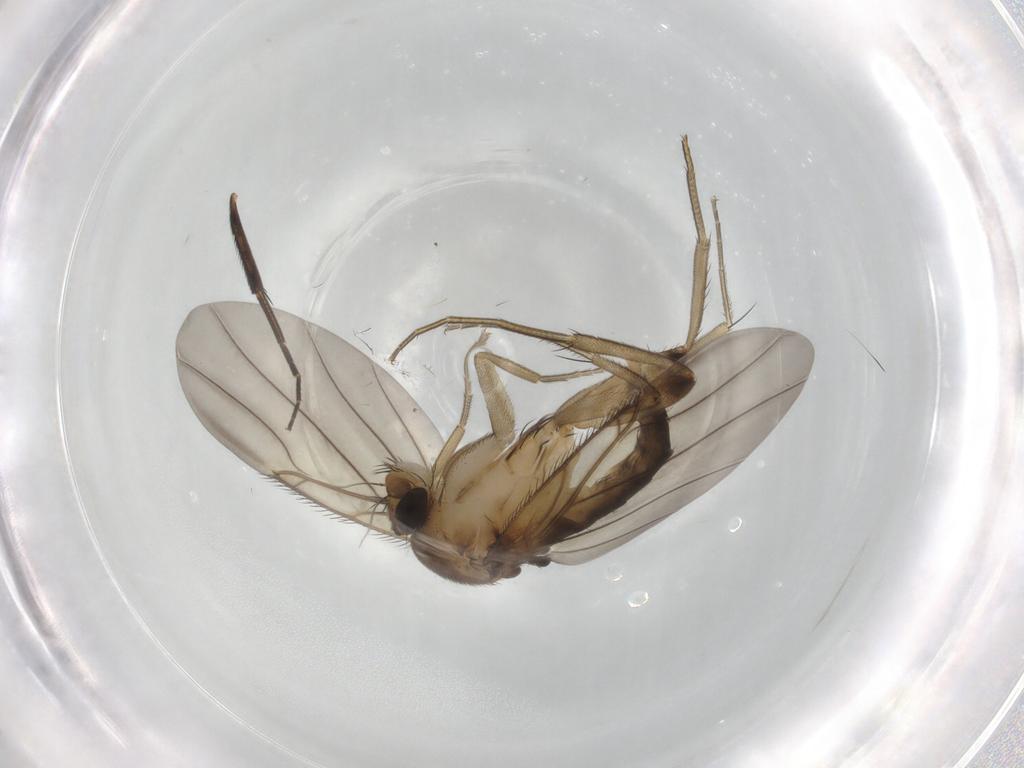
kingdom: Animalia
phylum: Arthropoda
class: Insecta
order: Diptera
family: Phoridae
